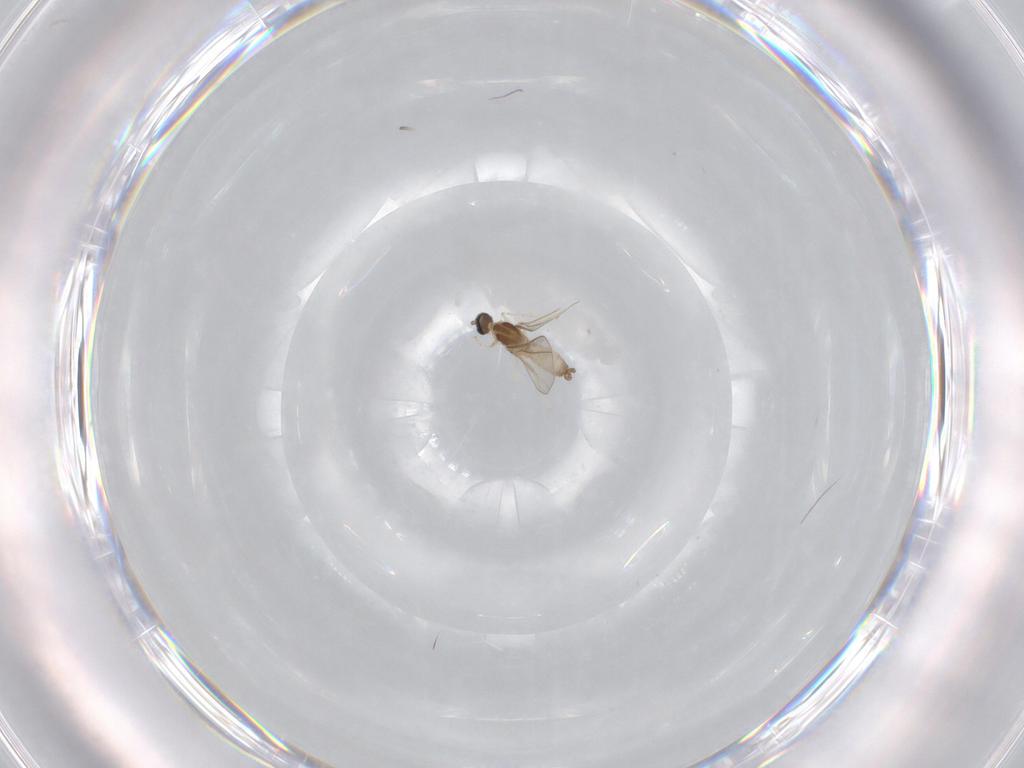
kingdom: Animalia
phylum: Arthropoda
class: Insecta
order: Diptera
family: Cecidomyiidae
